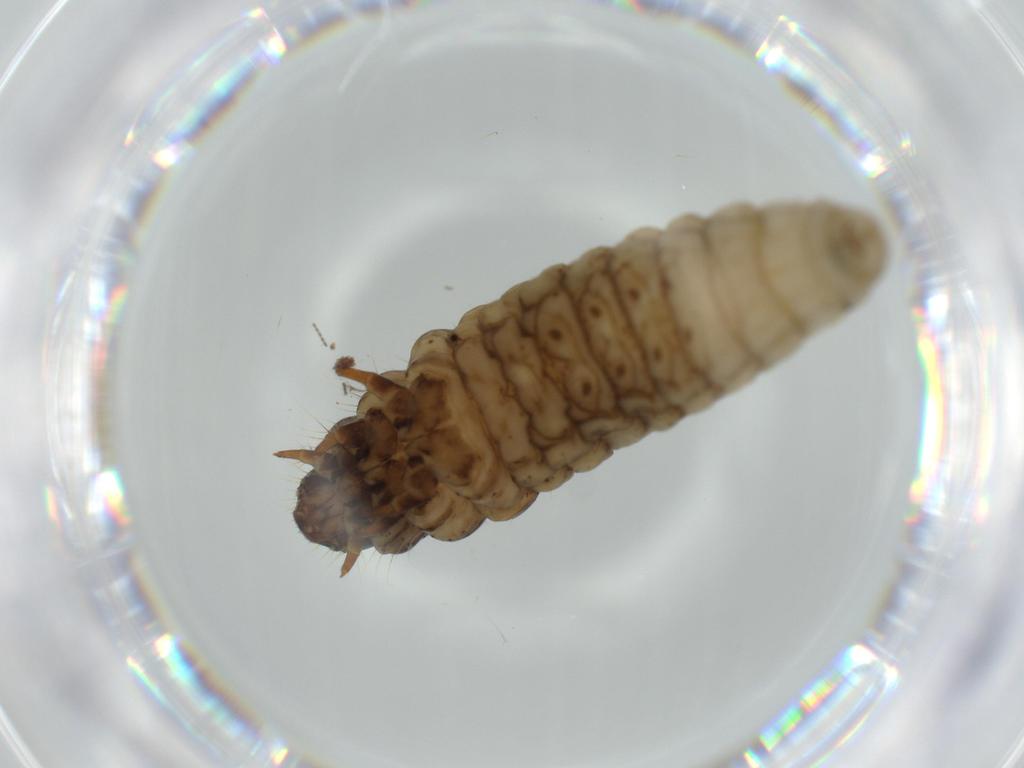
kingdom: Animalia
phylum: Arthropoda
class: Insecta
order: Lepidoptera
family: Psychidae
